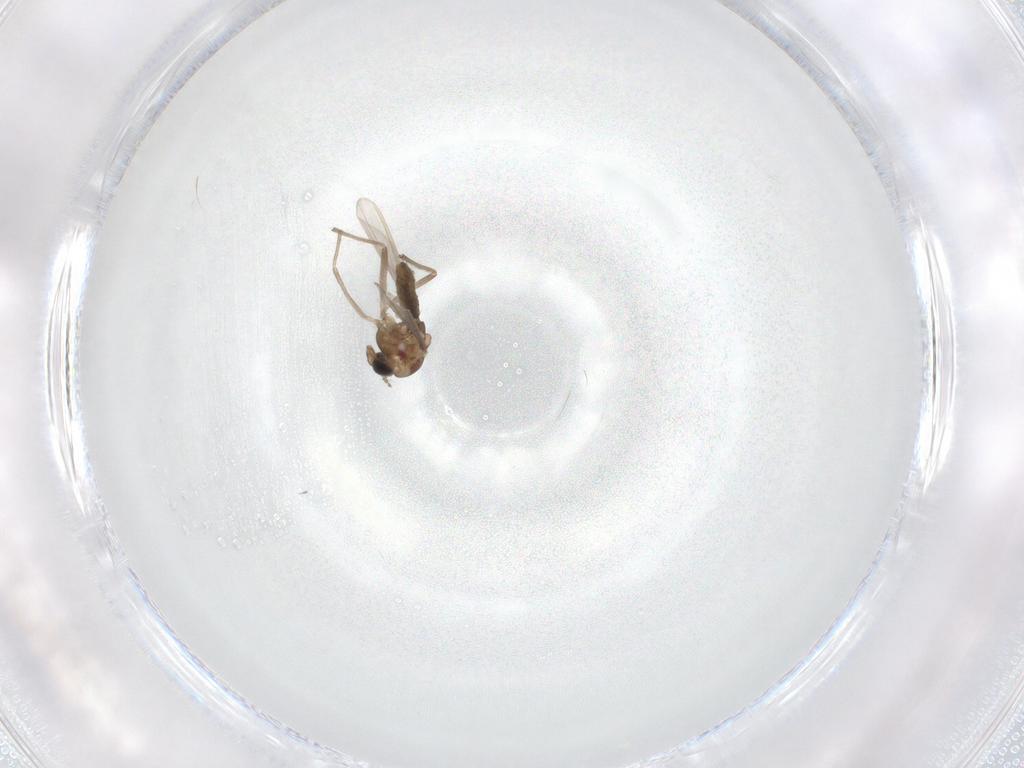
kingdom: Animalia
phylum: Arthropoda
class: Insecta
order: Diptera
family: Chironomidae
